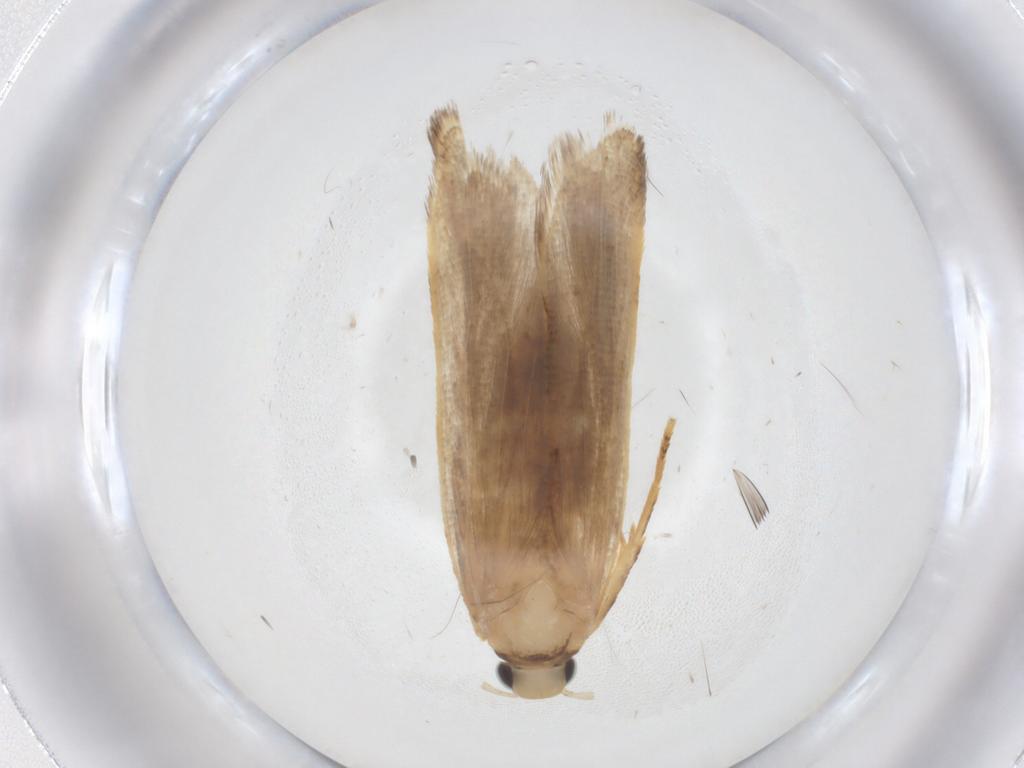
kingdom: Animalia
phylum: Arthropoda
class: Insecta
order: Lepidoptera
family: Gelechiidae
